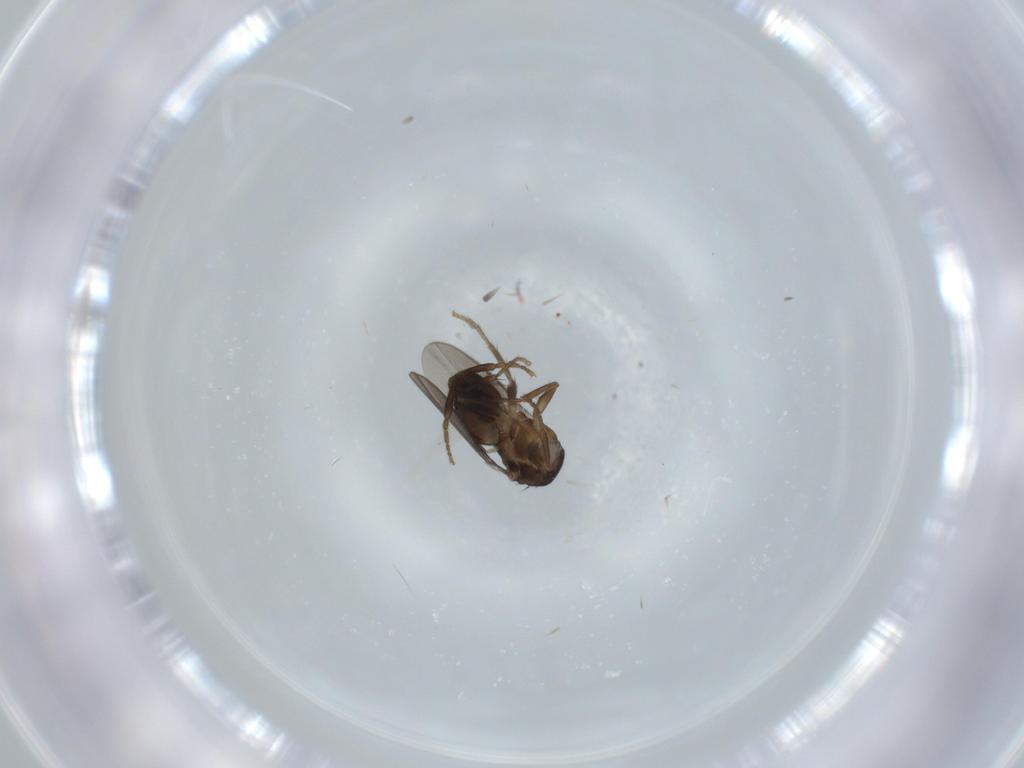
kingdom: Animalia
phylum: Arthropoda
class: Insecta
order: Diptera
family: Sphaeroceridae
